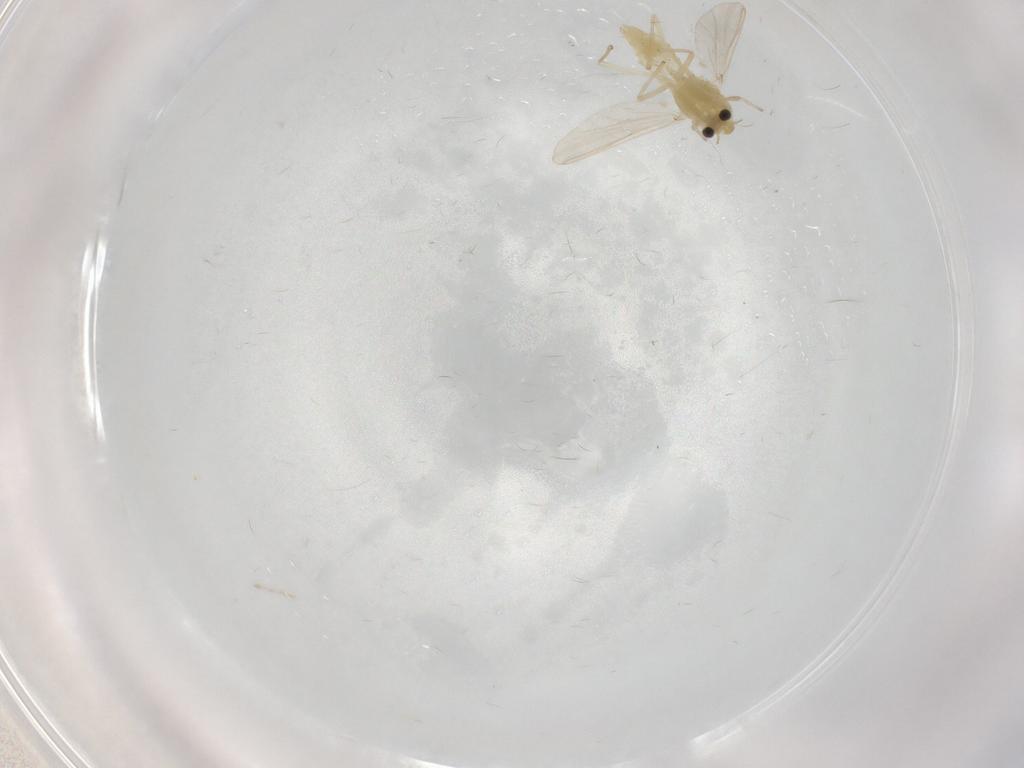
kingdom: Animalia
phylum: Arthropoda
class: Insecta
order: Diptera
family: Chironomidae
